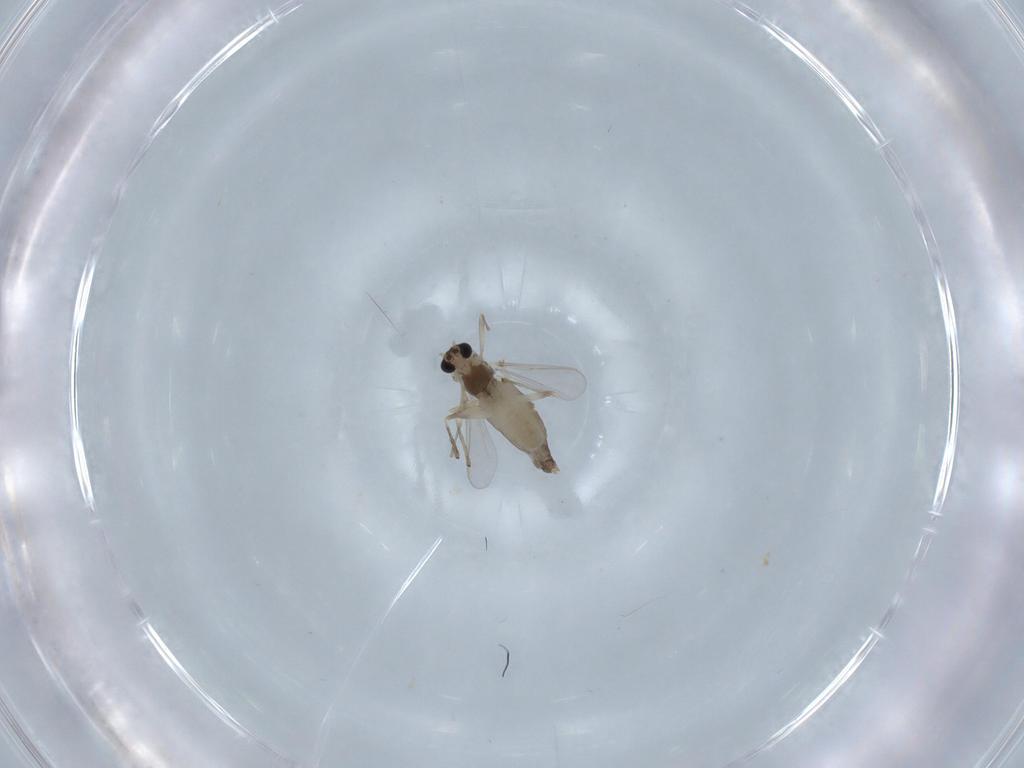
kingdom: Animalia
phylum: Arthropoda
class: Insecta
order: Diptera
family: Chironomidae
